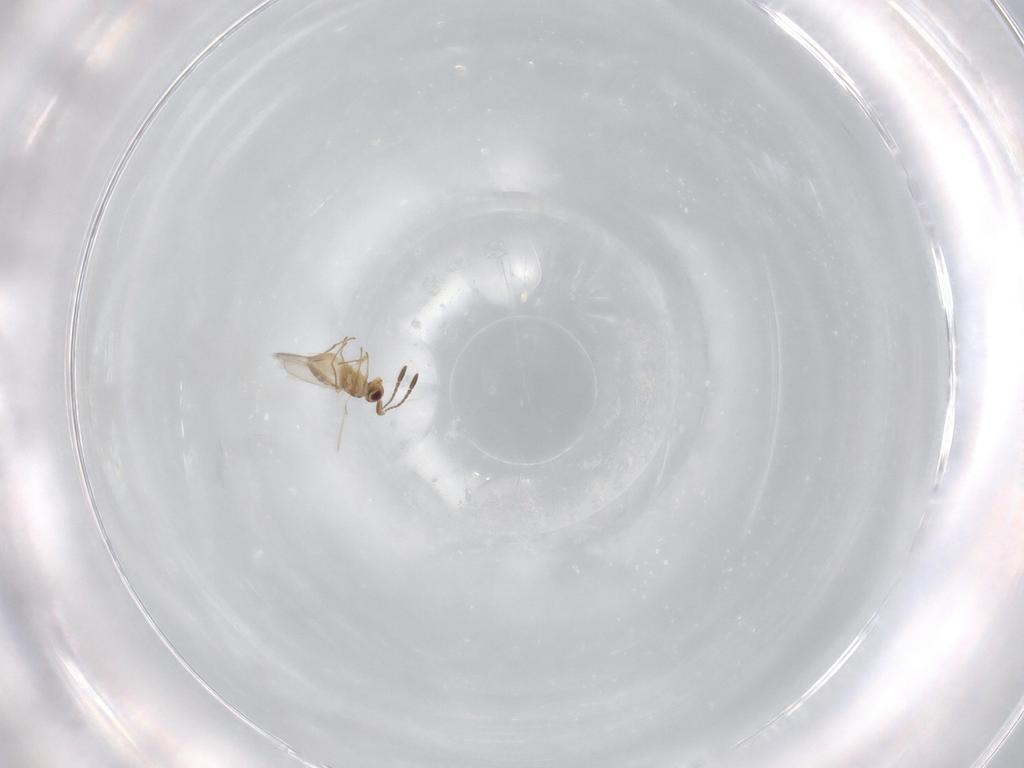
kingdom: Animalia
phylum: Arthropoda
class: Insecta
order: Hymenoptera
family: Mymaridae
